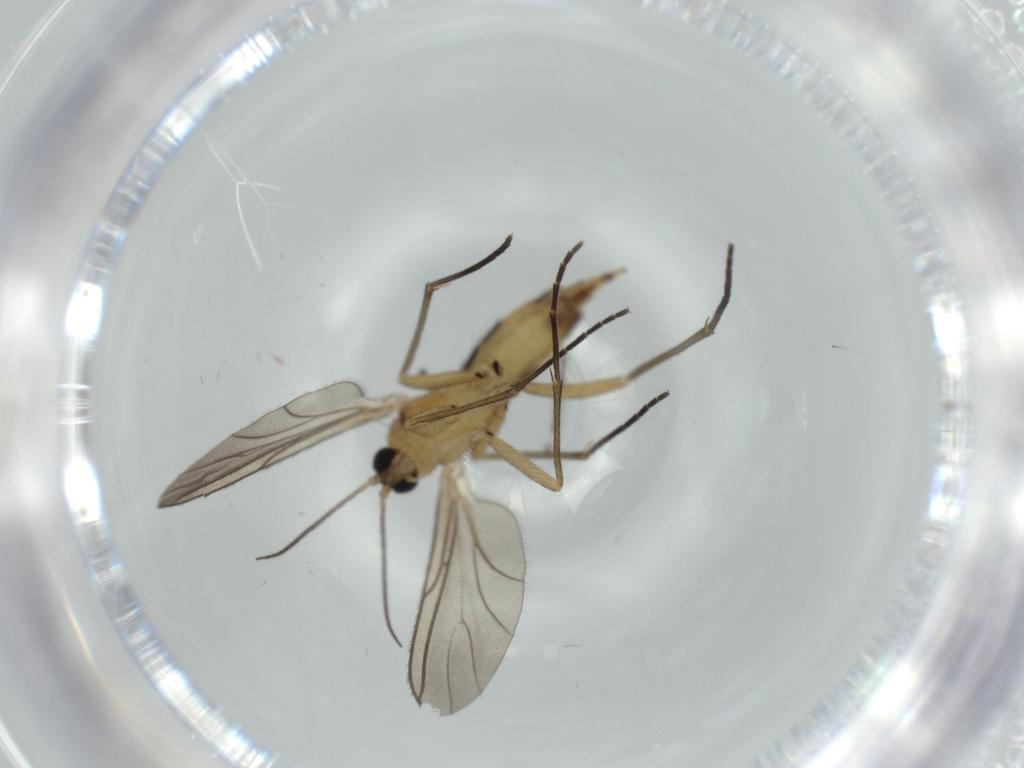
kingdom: Animalia
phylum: Arthropoda
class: Insecta
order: Diptera
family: Sciaridae
